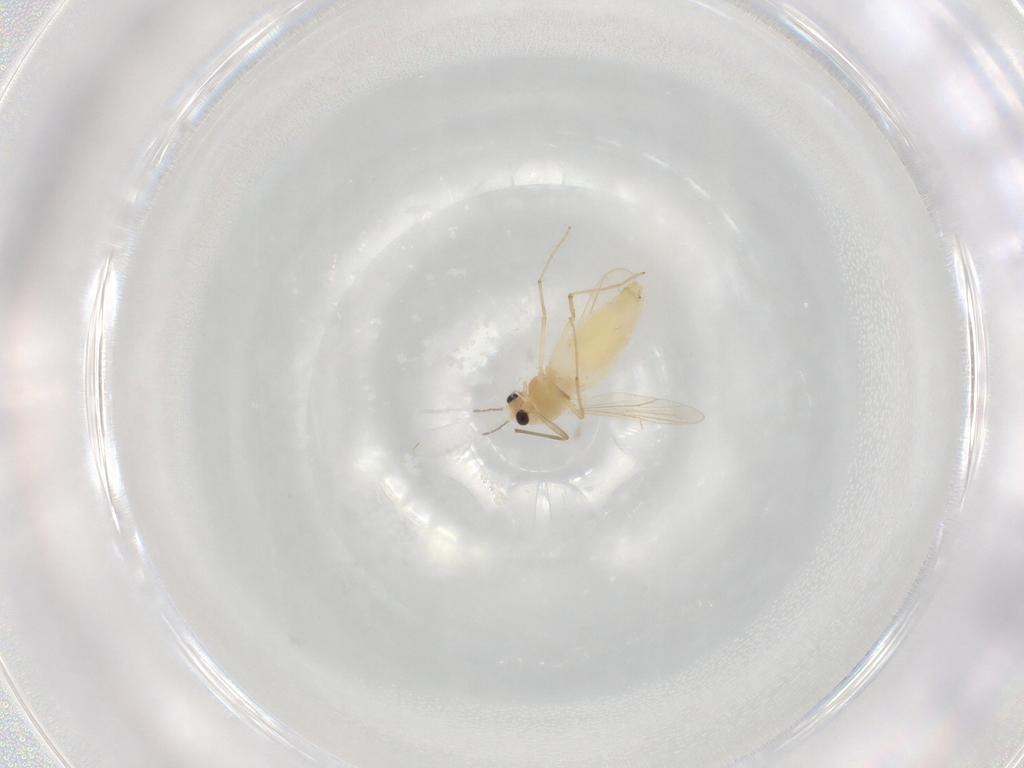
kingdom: Animalia
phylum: Arthropoda
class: Insecta
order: Diptera
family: Chironomidae
